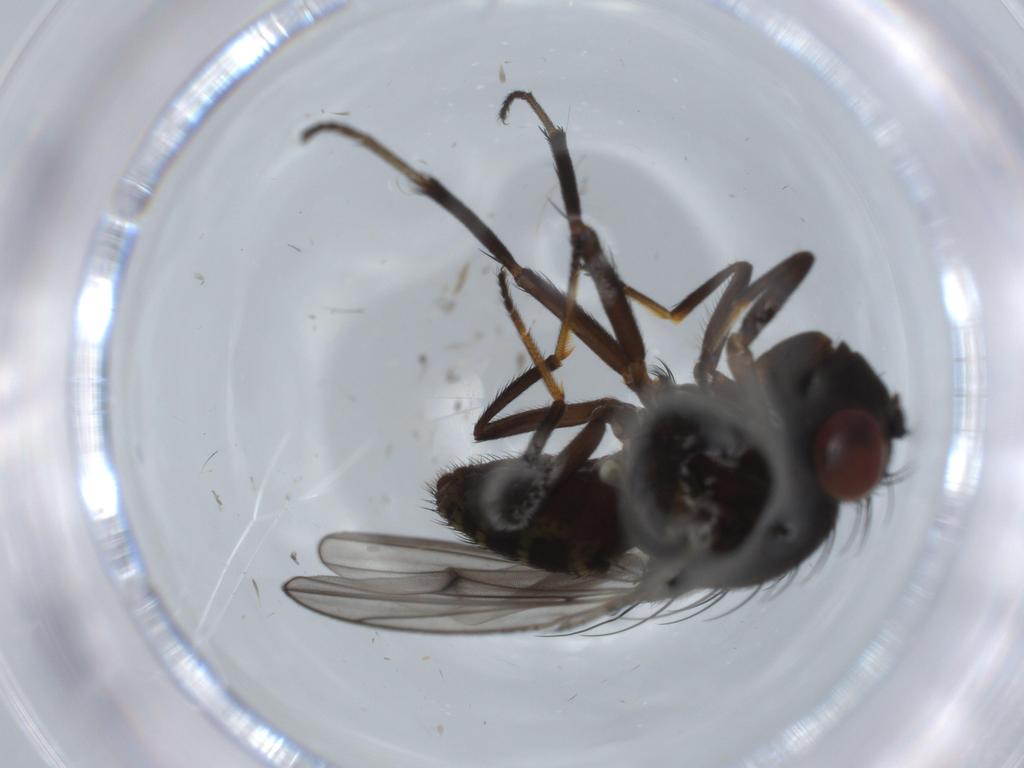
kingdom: Animalia
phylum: Arthropoda
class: Insecta
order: Diptera
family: Ephydridae
